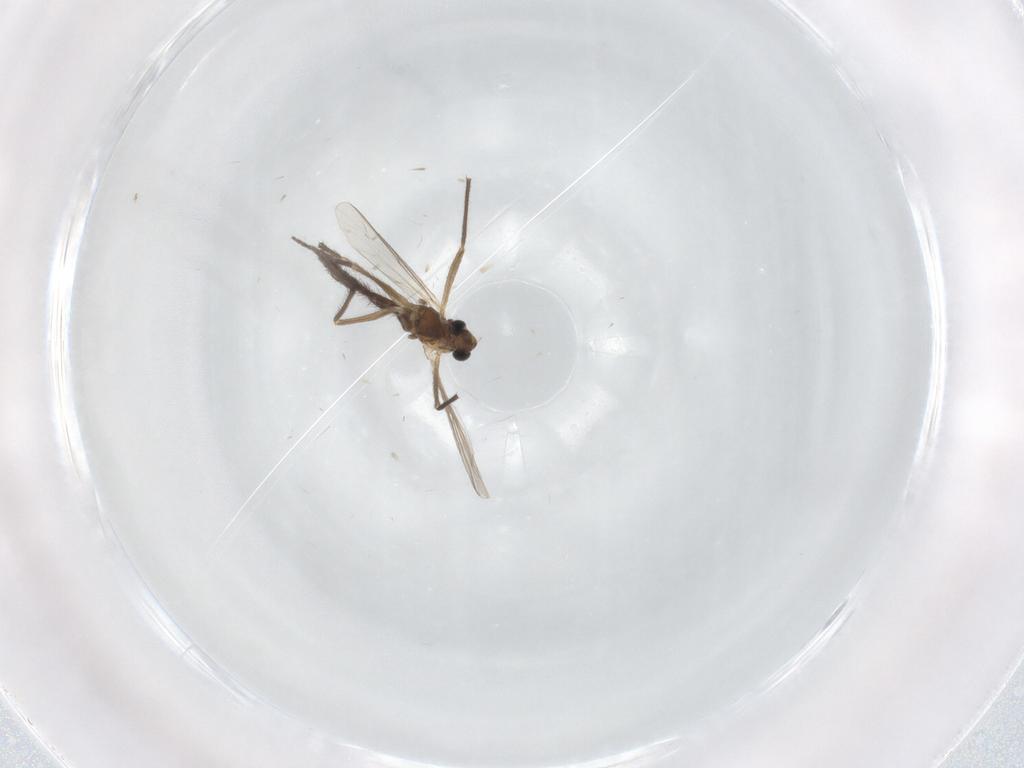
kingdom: Animalia
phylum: Arthropoda
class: Insecta
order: Diptera
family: Chironomidae
